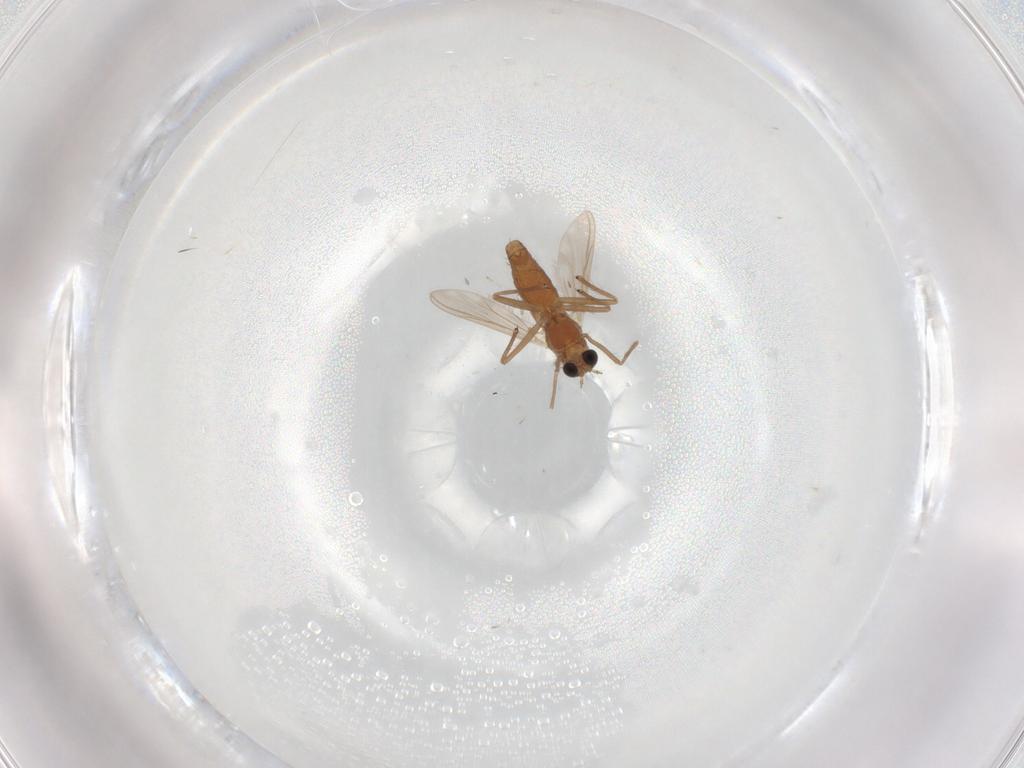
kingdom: Animalia
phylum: Arthropoda
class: Insecta
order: Diptera
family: Chironomidae
